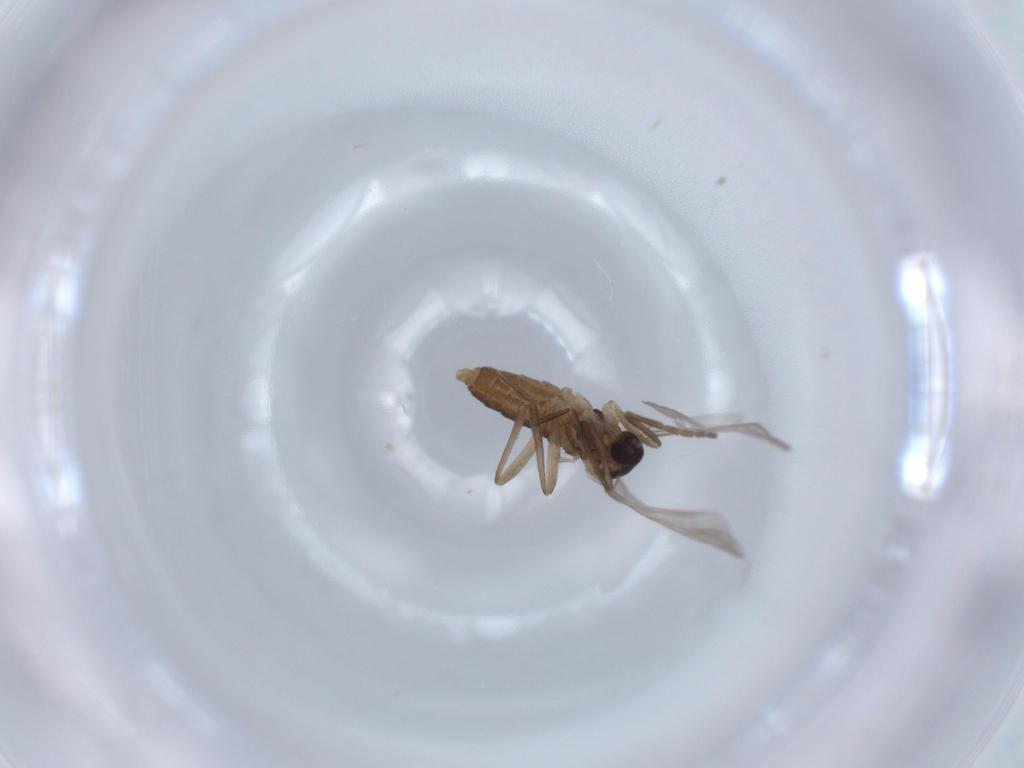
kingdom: Animalia
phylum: Arthropoda
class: Insecta
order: Diptera
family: Cecidomyiidae
